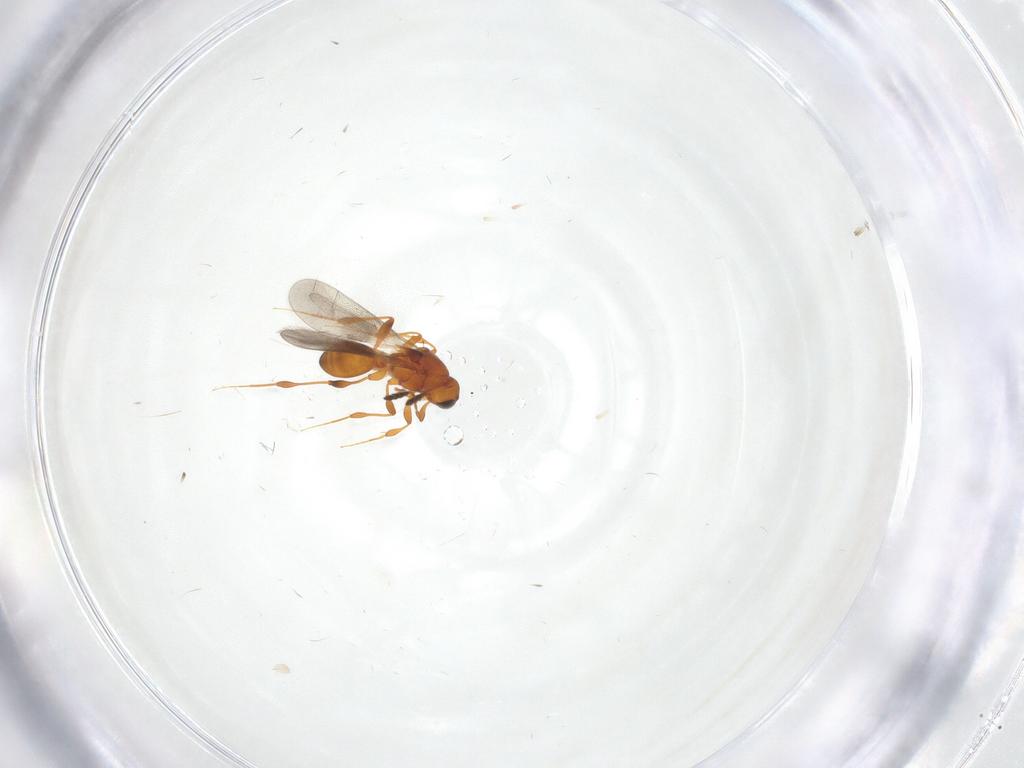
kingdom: Animalia
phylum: Arthropoda
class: Insecta
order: Hymenoptera
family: Platygastridae
